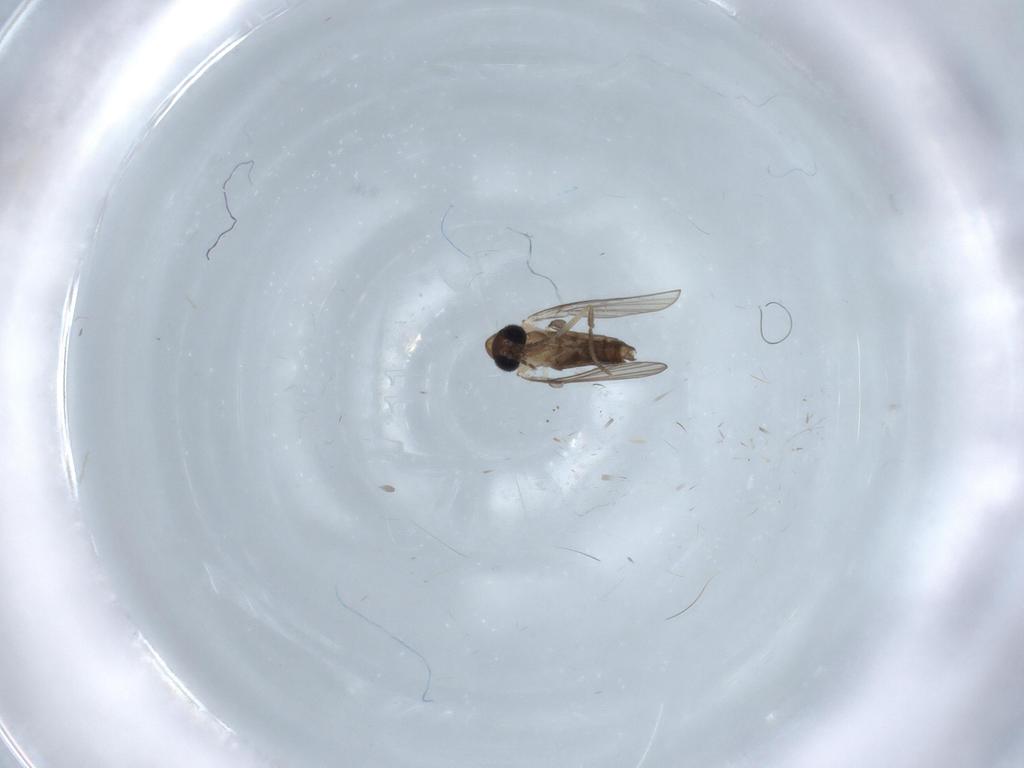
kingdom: Animalia
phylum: Arthropoda
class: Insecta
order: Diptera
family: Psychodidae
